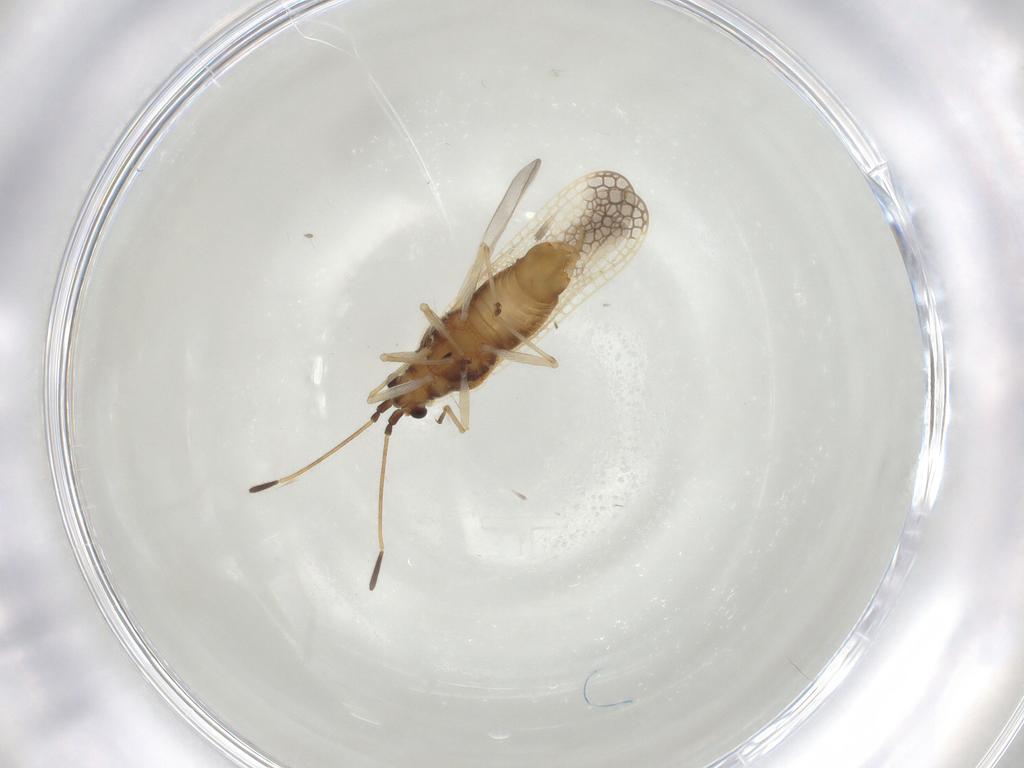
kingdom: Animalia
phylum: Arthropoda
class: Insecta
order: Hemiptera
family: Tingidae
